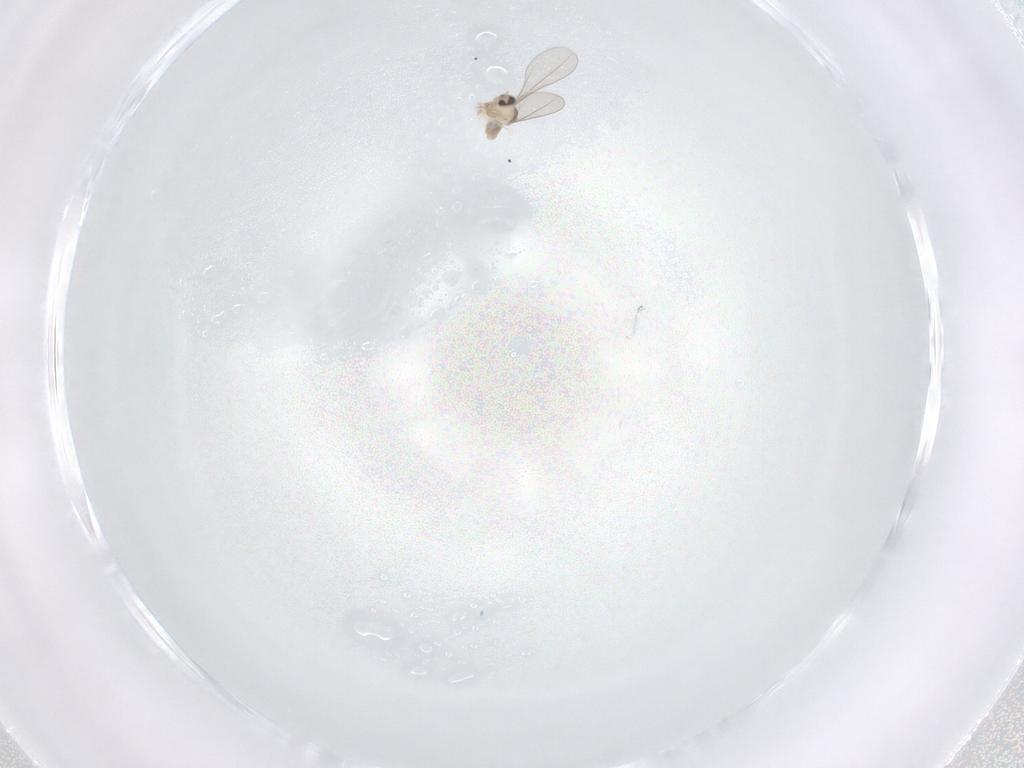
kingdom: Animalia
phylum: Arthropoda
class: Insecta
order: Diptera
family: Cecidomyiidae
